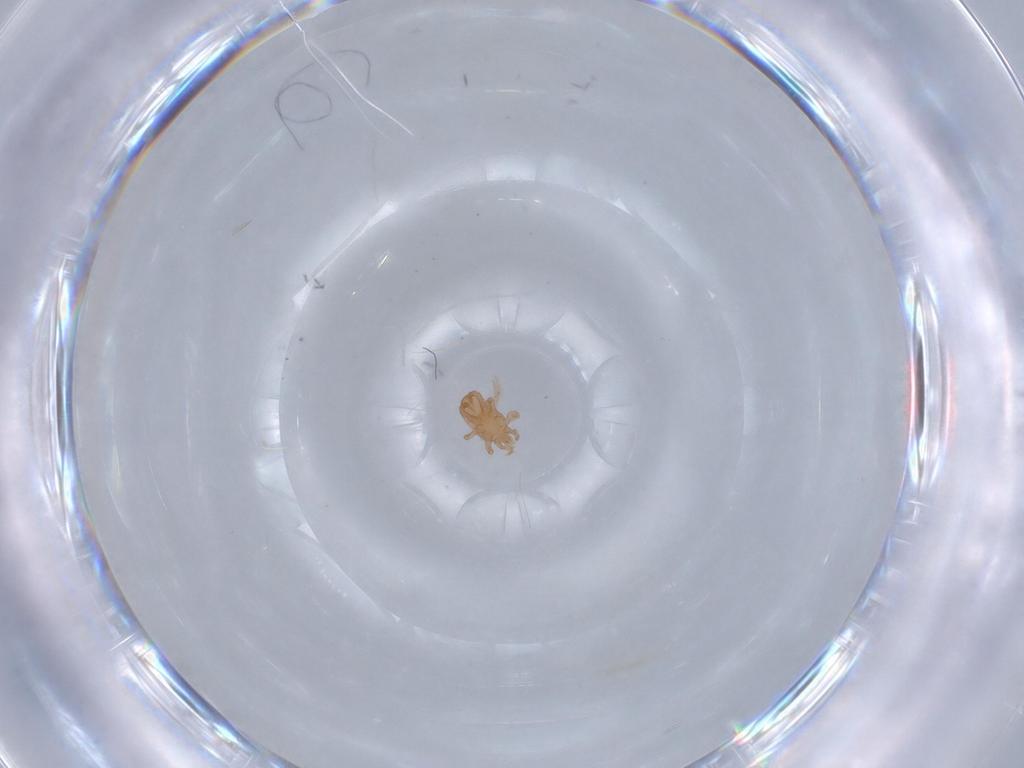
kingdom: Animalia
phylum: Arthropoda
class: Arachnida
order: Mesostigmata
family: Halolaelapidae
